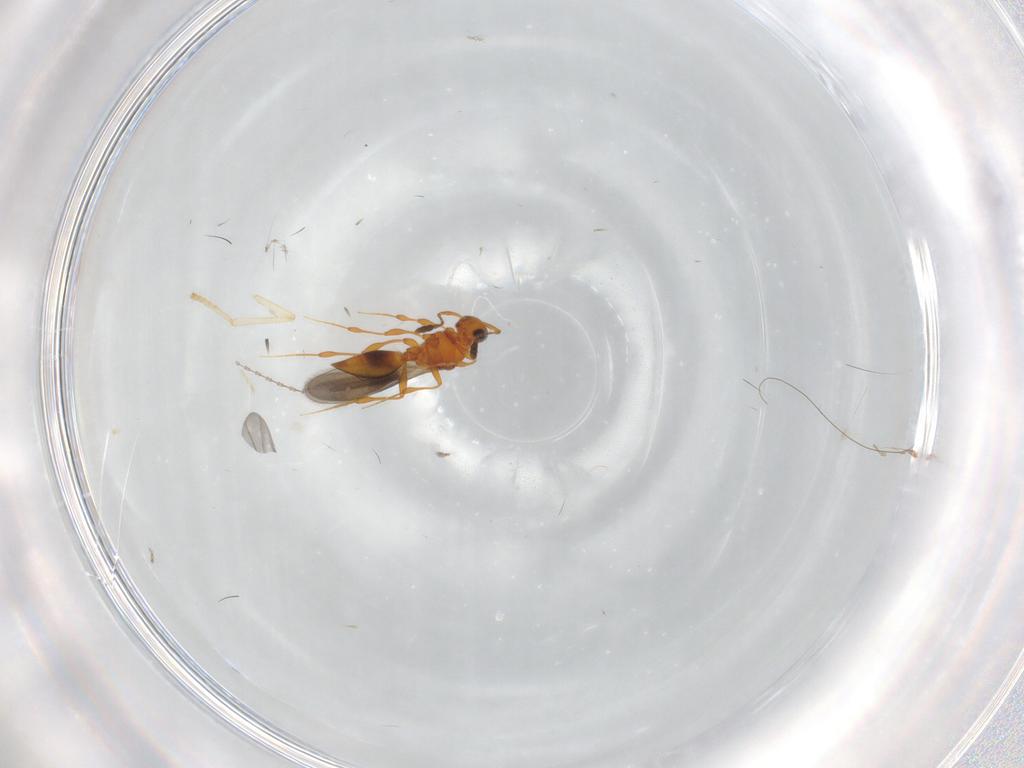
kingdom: Animalia
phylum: Arthropoda
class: Insecta
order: Hymenoptera
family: Platygastridae
